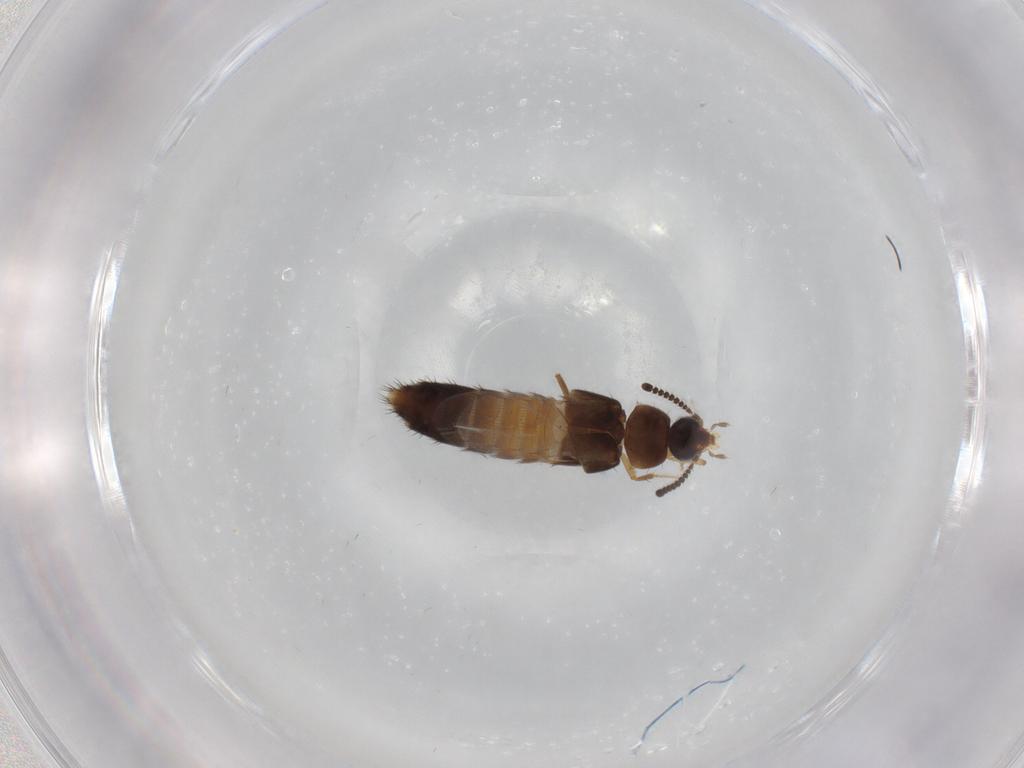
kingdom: Animalia
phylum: Arthropoda
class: Insecta
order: Coleoptera
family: Staphylinidae
